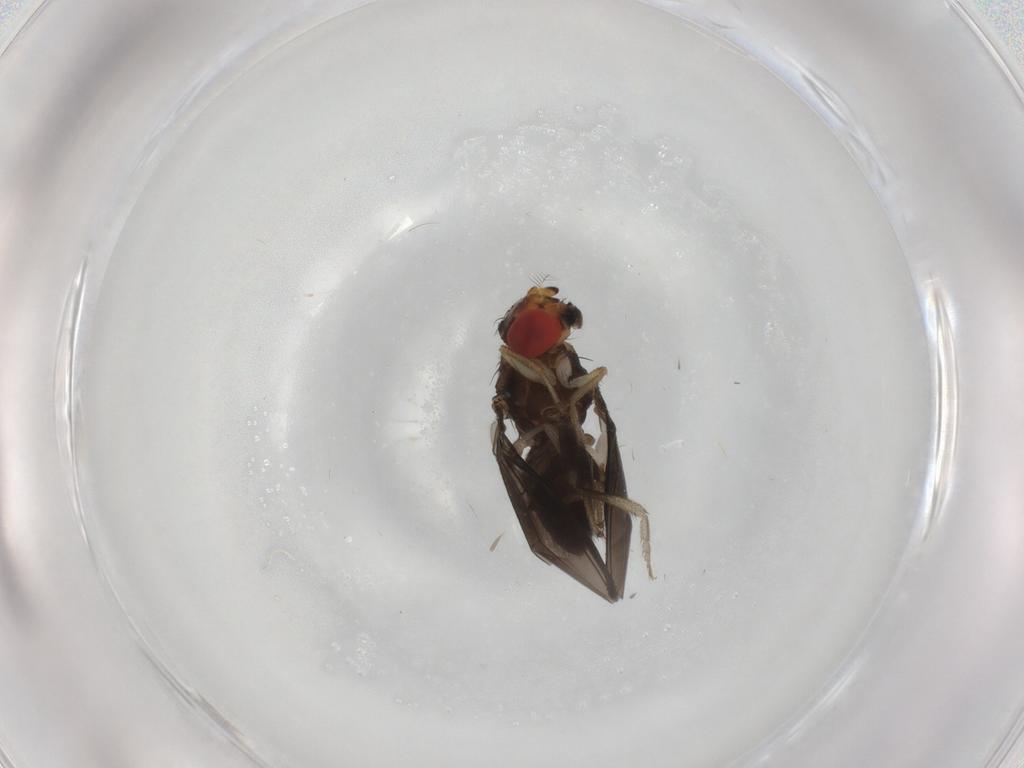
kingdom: Animalia
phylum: Arthropoda
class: Insecta
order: Diptera
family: Drosophilidae
